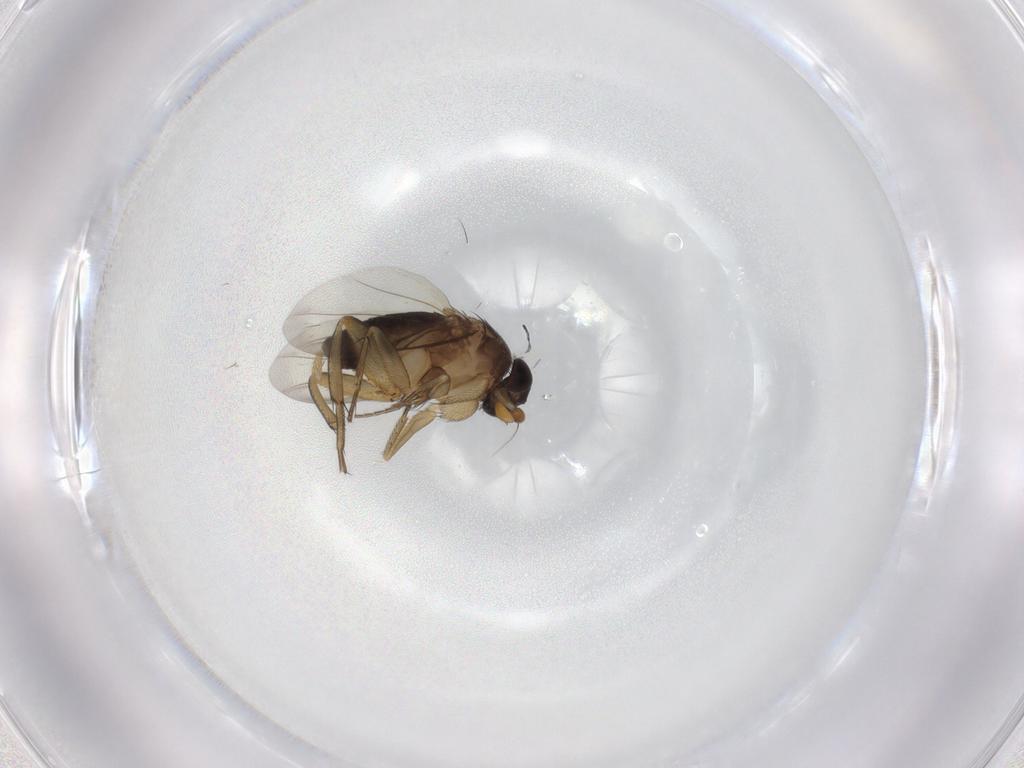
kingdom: Animalia
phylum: Arthropoda
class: Insecta
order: Diptera
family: Phoridae
